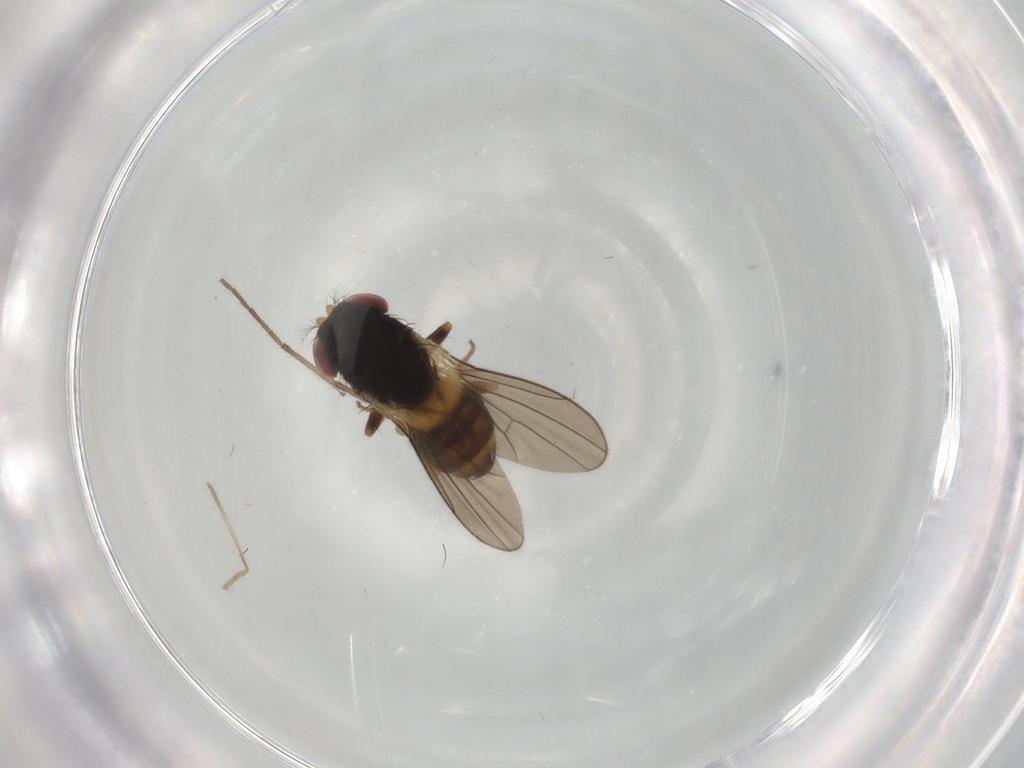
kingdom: Animalia
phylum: Arthropoda
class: Insecta
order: Diptera
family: Drosophilidae
